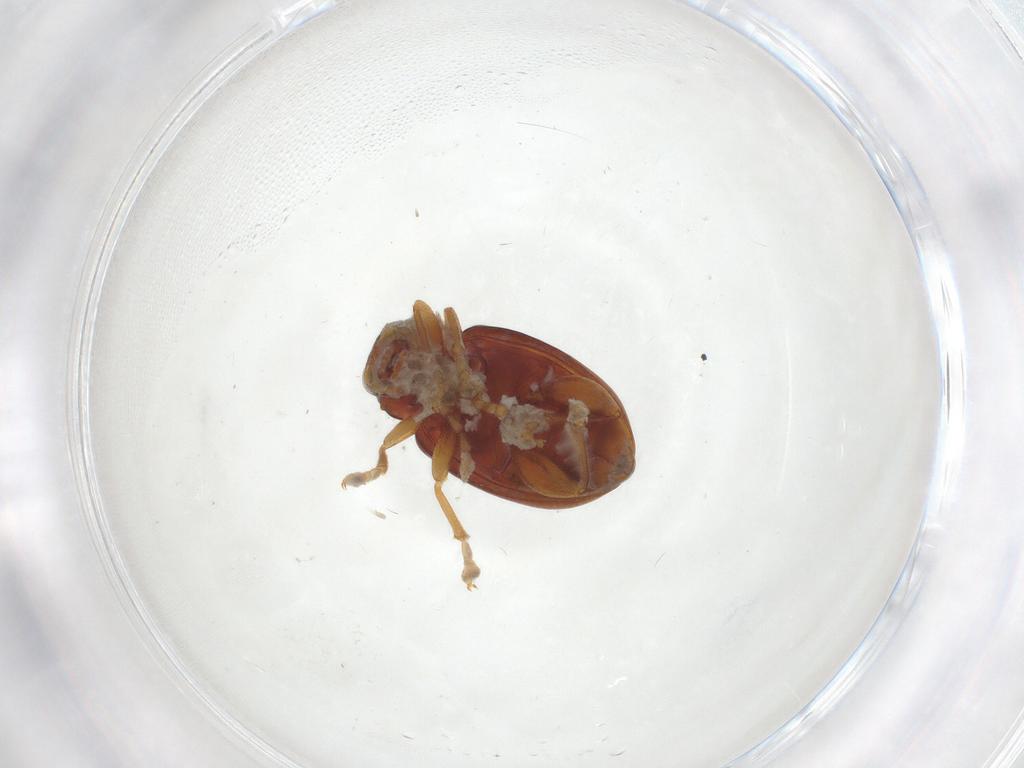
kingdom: Animalia
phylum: Arthropoda
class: Insecta
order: Coleoptera
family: Chrysomelidae
